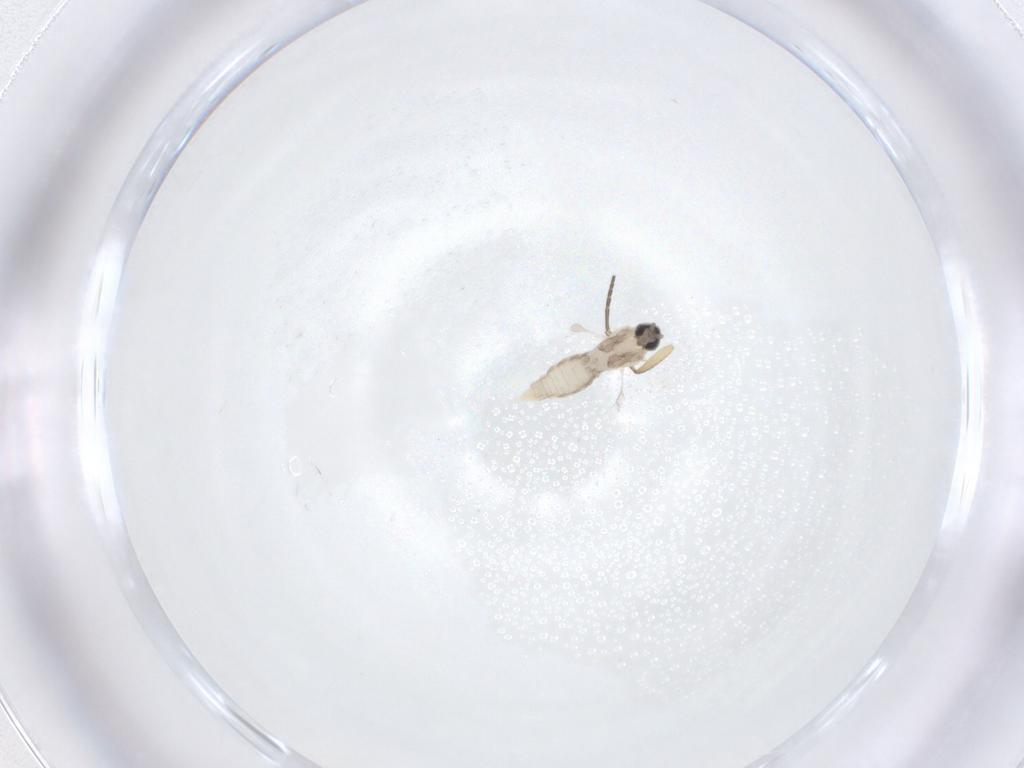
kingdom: Animalia
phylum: Arthropoda
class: Insecta
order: Diptera
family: Cecidomyiidae
